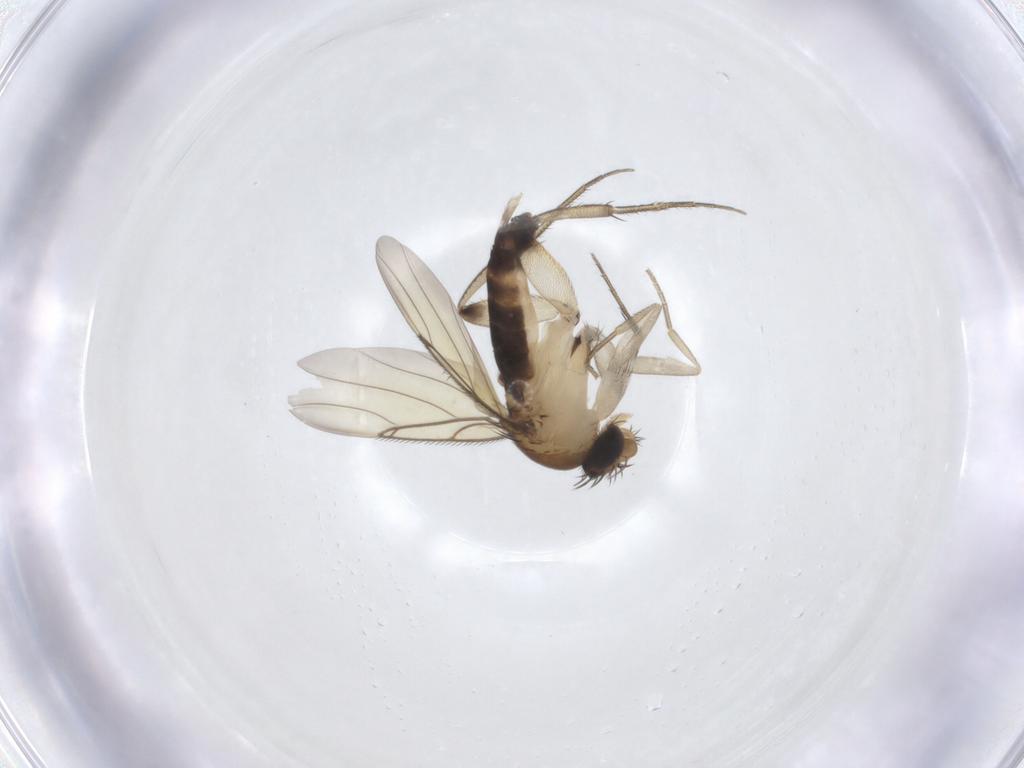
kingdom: Animalia
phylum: Arthropoda
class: Insecta
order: Diptera
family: Phoridae
